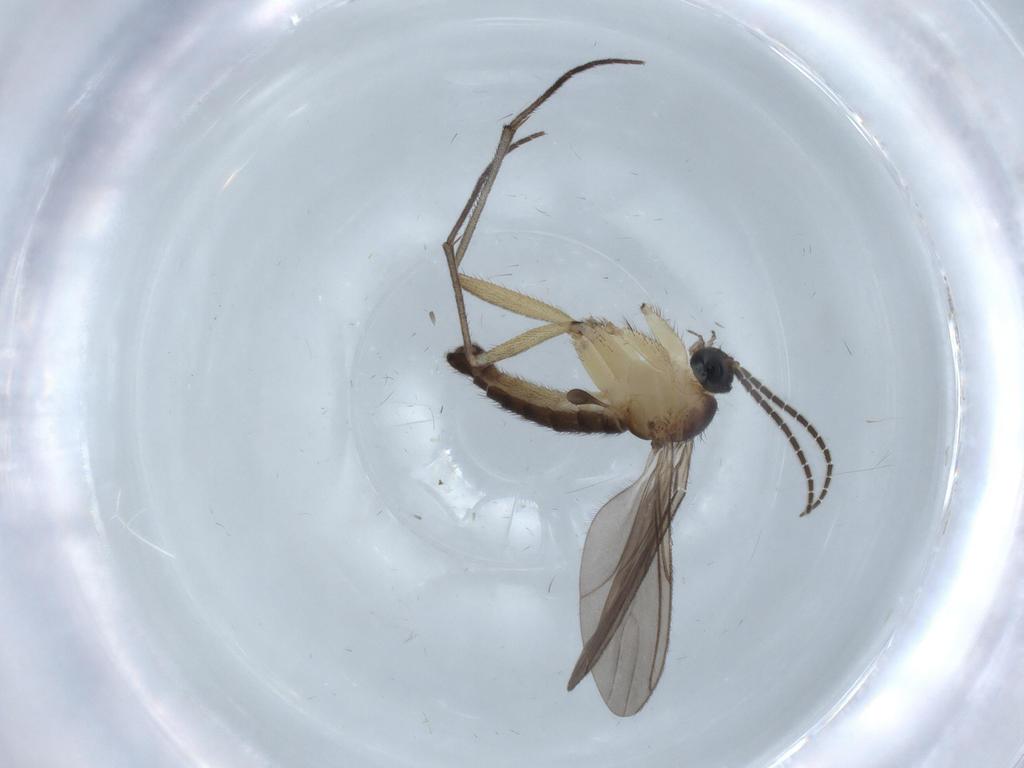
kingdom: Animalia
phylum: Arthropoda
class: Insecta
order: Diptera
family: Sciaridae
